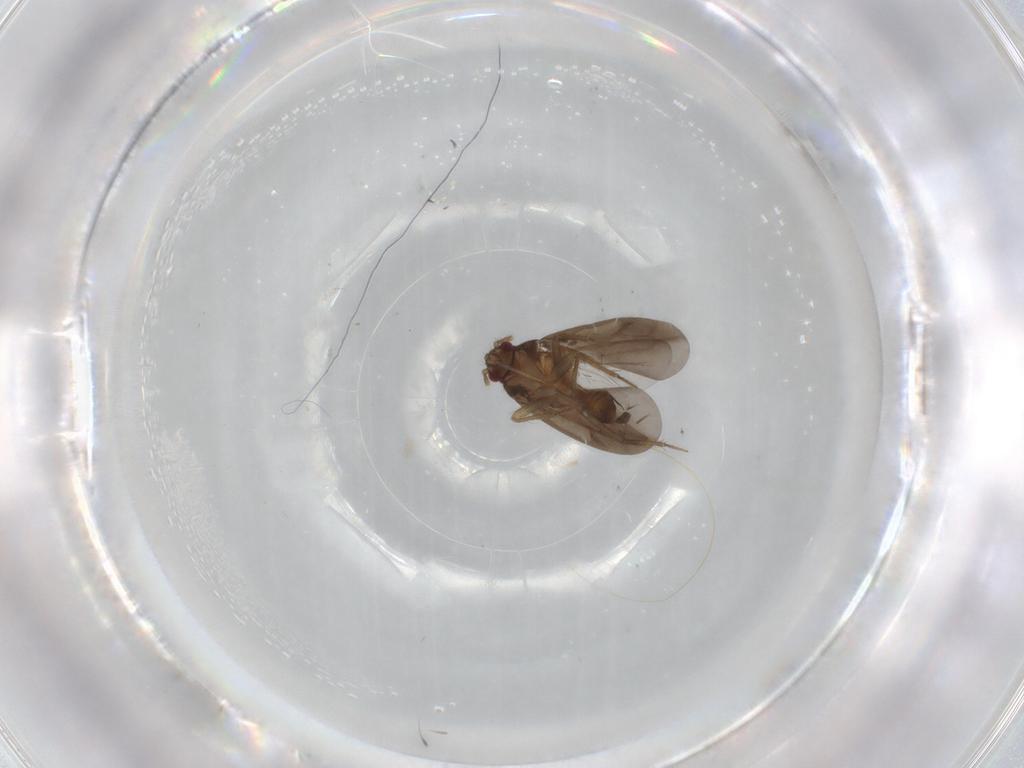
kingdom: Animalia
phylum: Arthropoda
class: Insecta
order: Hemiptera
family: Ceratocombidae
